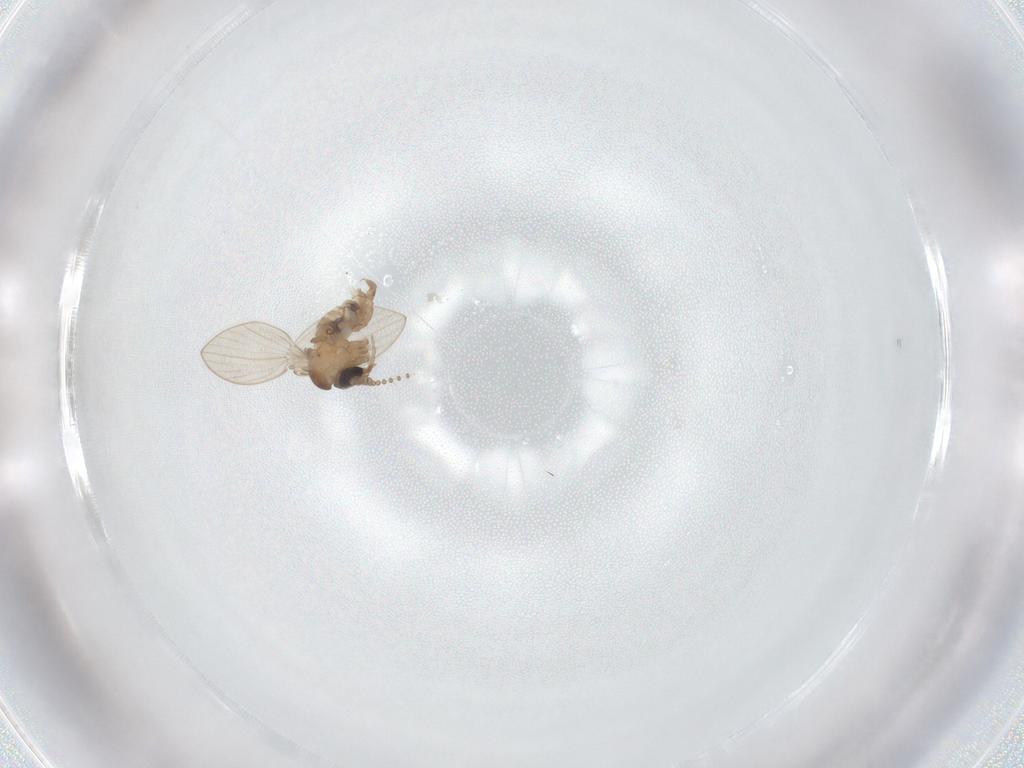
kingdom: Animalia
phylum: Arthropoda
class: Insecta
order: Diptera
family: Psychodidae
